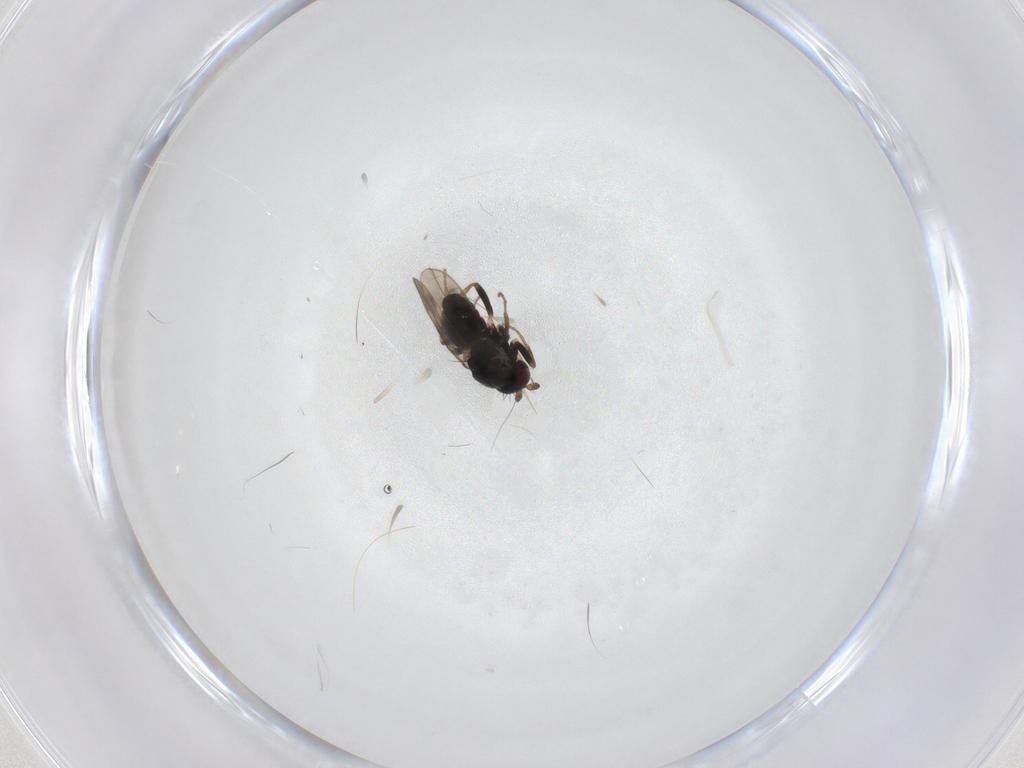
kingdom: Animalia
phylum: Arthropoda
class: Insecta
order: Diptera
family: Sphaeroceridae
